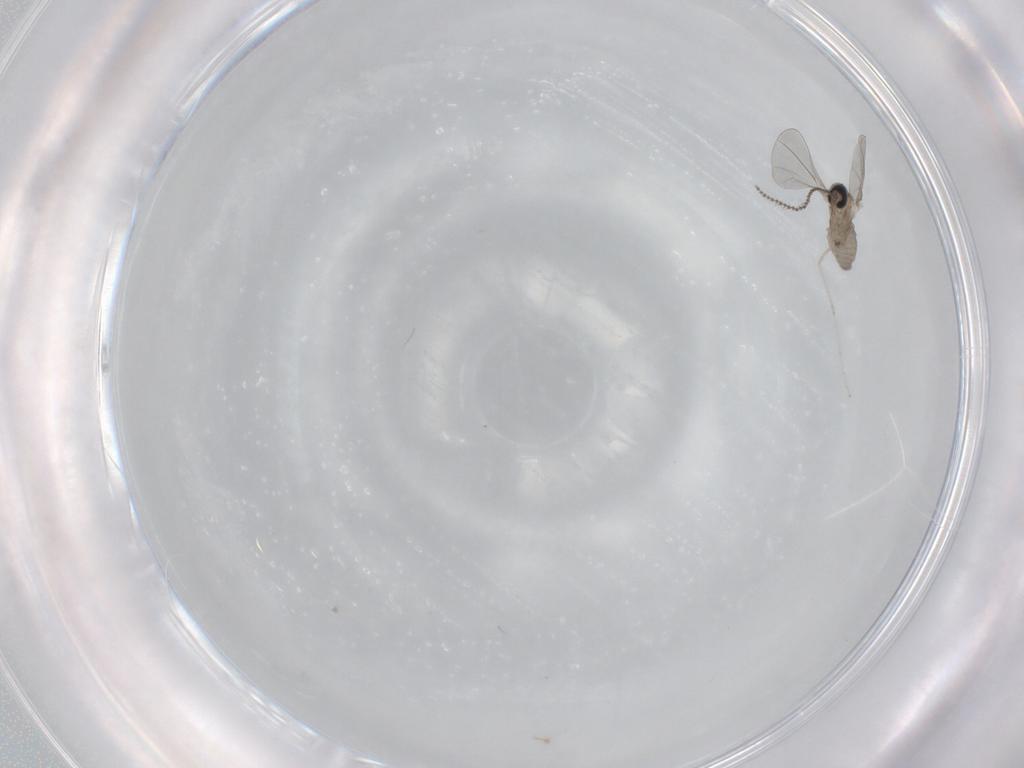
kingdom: Animalia
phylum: Arthropoda
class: Insecta
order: Diptera
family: Cecidomyiidae
